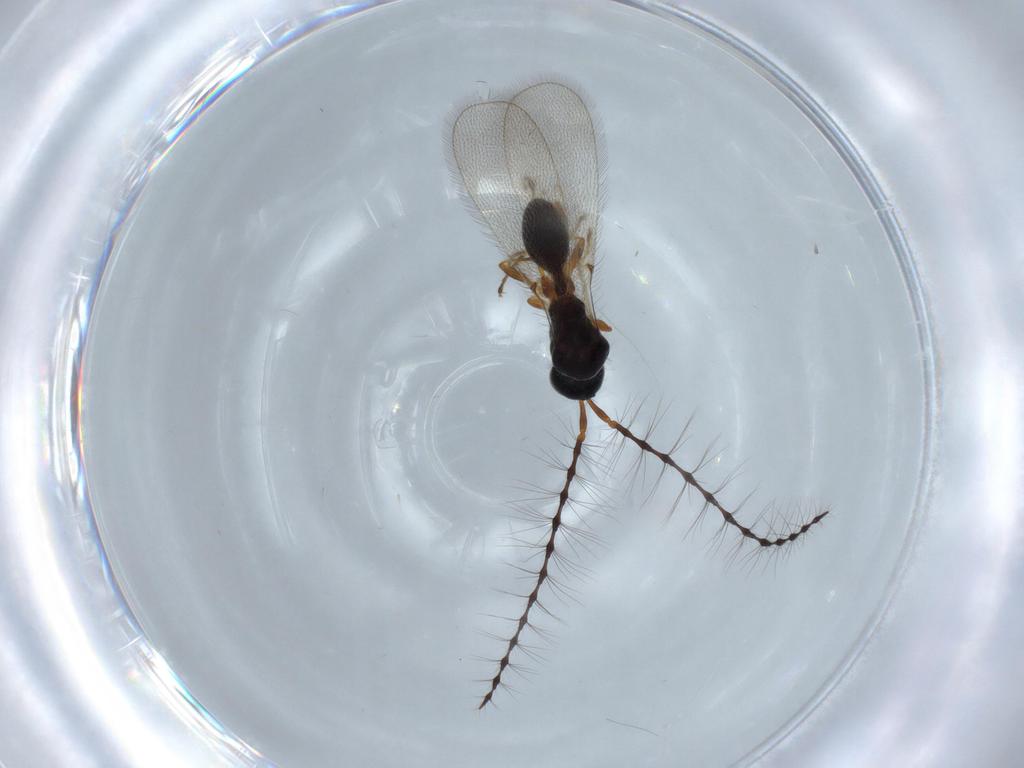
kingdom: Animalia
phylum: Arthropoda
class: Insecta
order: Hymenoptera
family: Diapriidae
